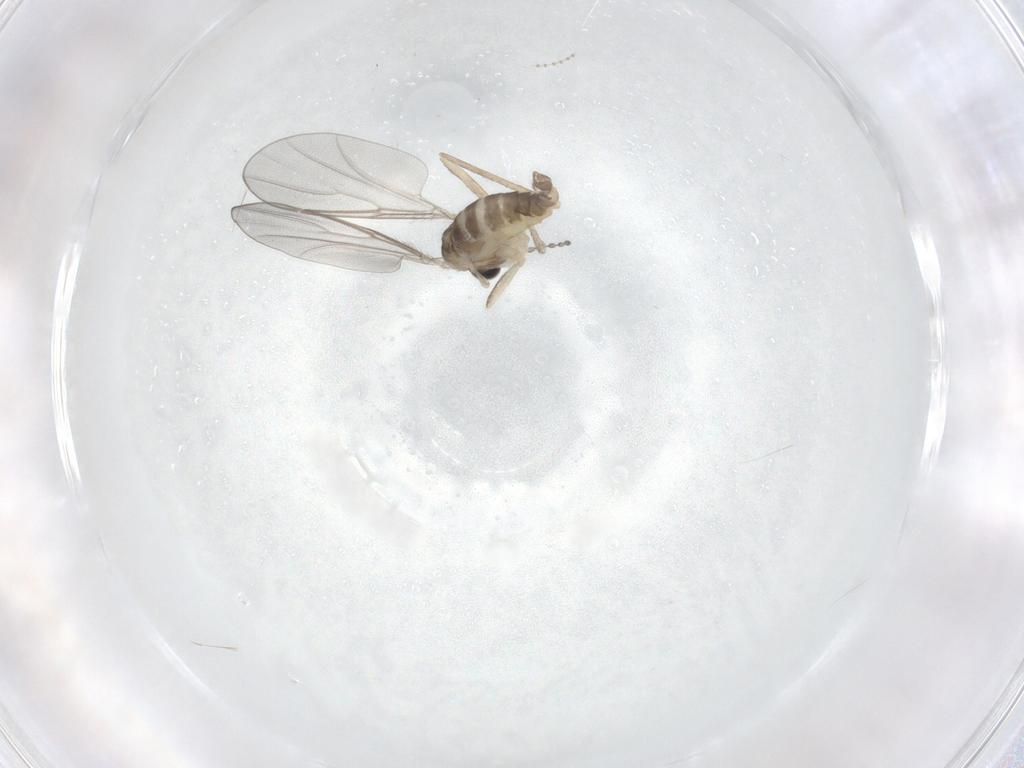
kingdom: Animalia
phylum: Arthropoda
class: Insecta
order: Diptera
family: Cecidomyiidae
